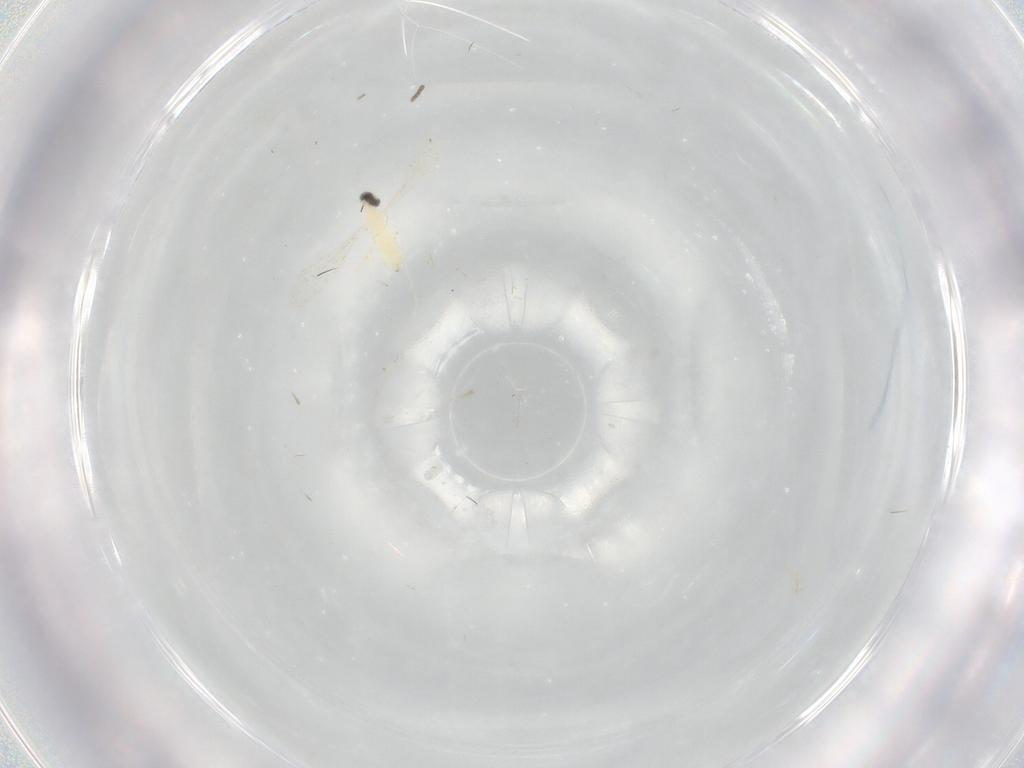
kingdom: Animalia
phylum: Arthropoda
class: Insecta
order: Diptera
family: Cecidomyiidae
